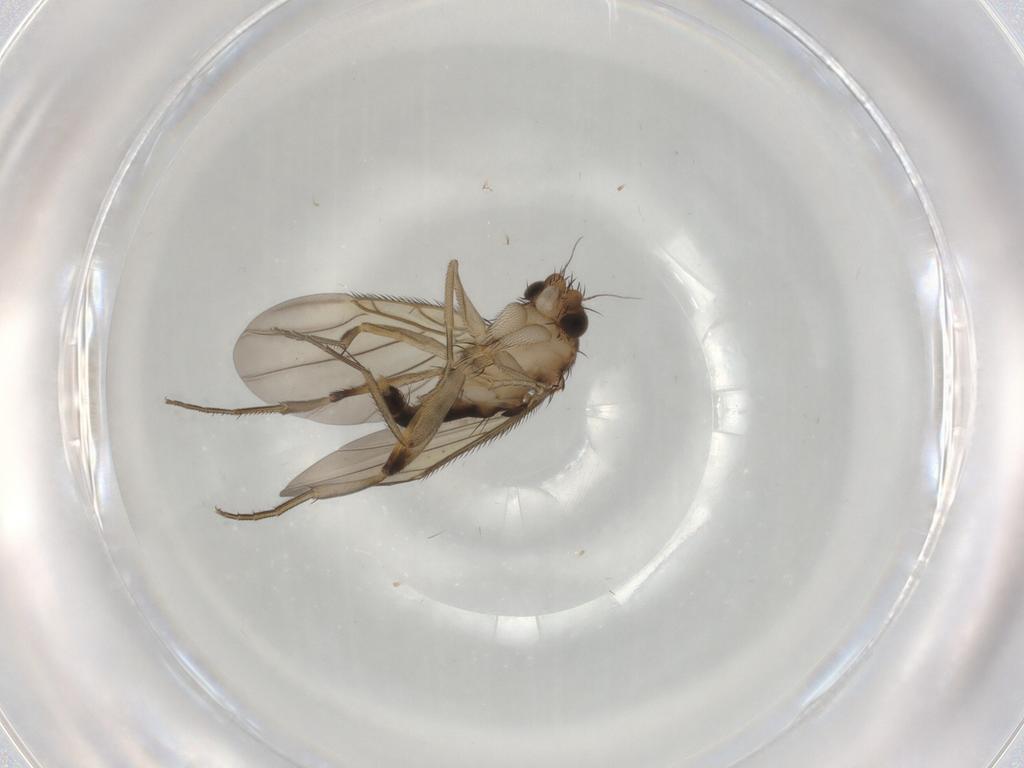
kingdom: Animalia
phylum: Arthropoda
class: Insecta
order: Diptera
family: Phoridae
